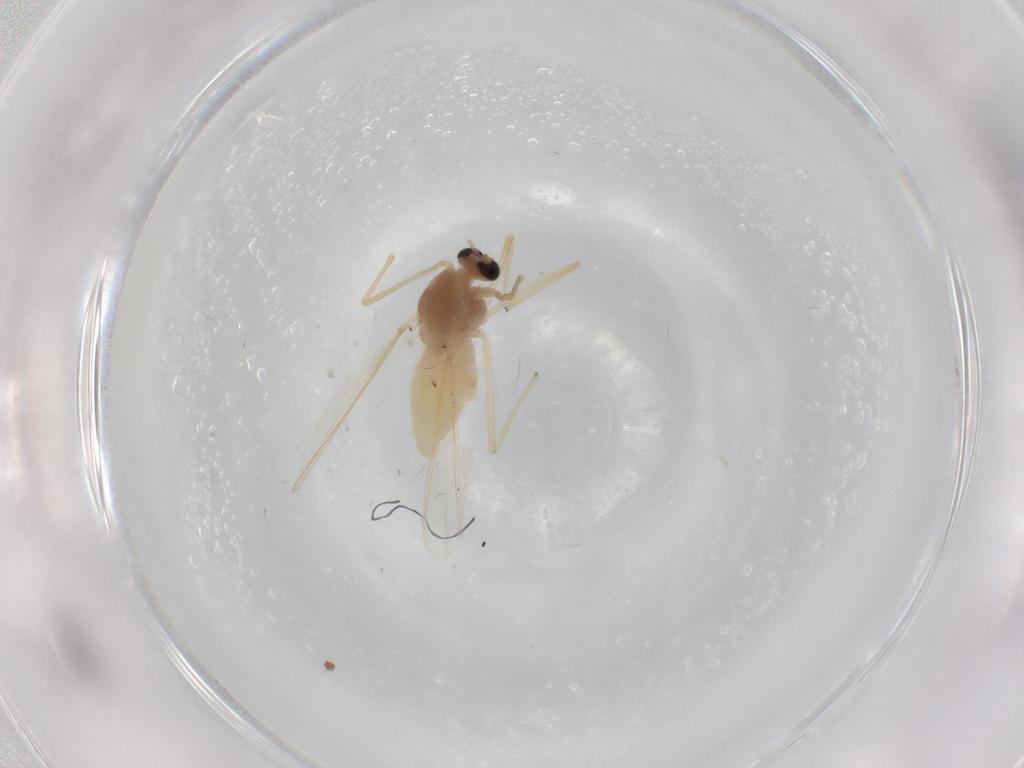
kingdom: Animalia
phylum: Arthropoda
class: Insecta
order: Diptera
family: Chironomidae
